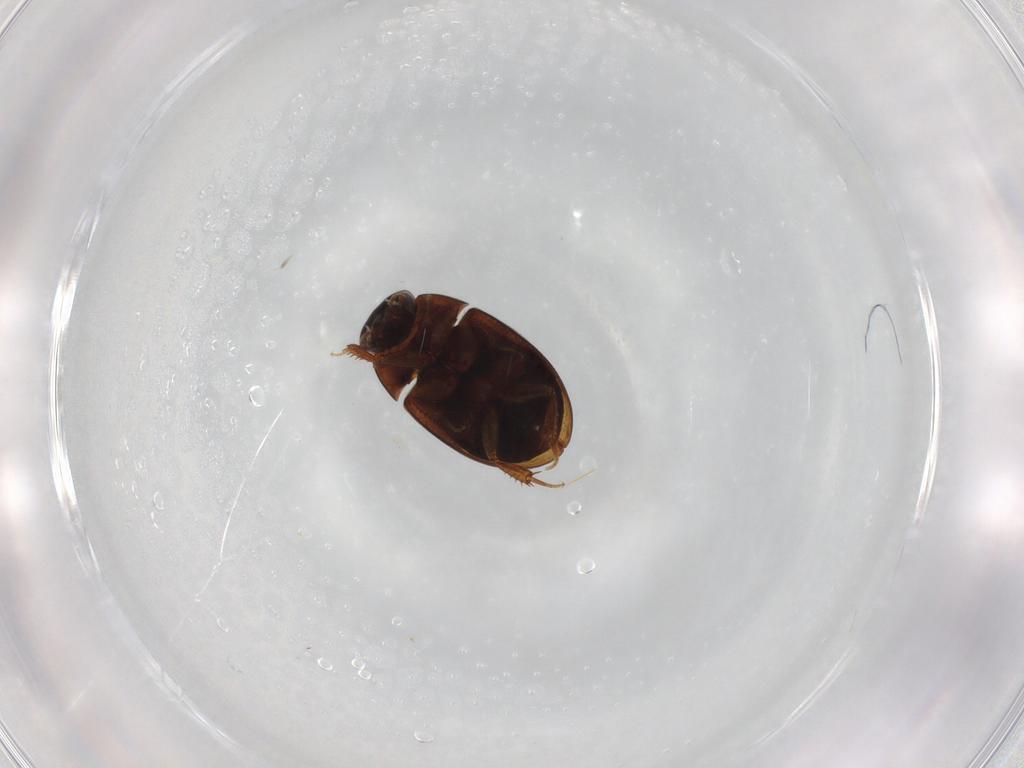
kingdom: Animalia
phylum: Arthropoda
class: Insecta
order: Coleoptera
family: Hydrophilidae
